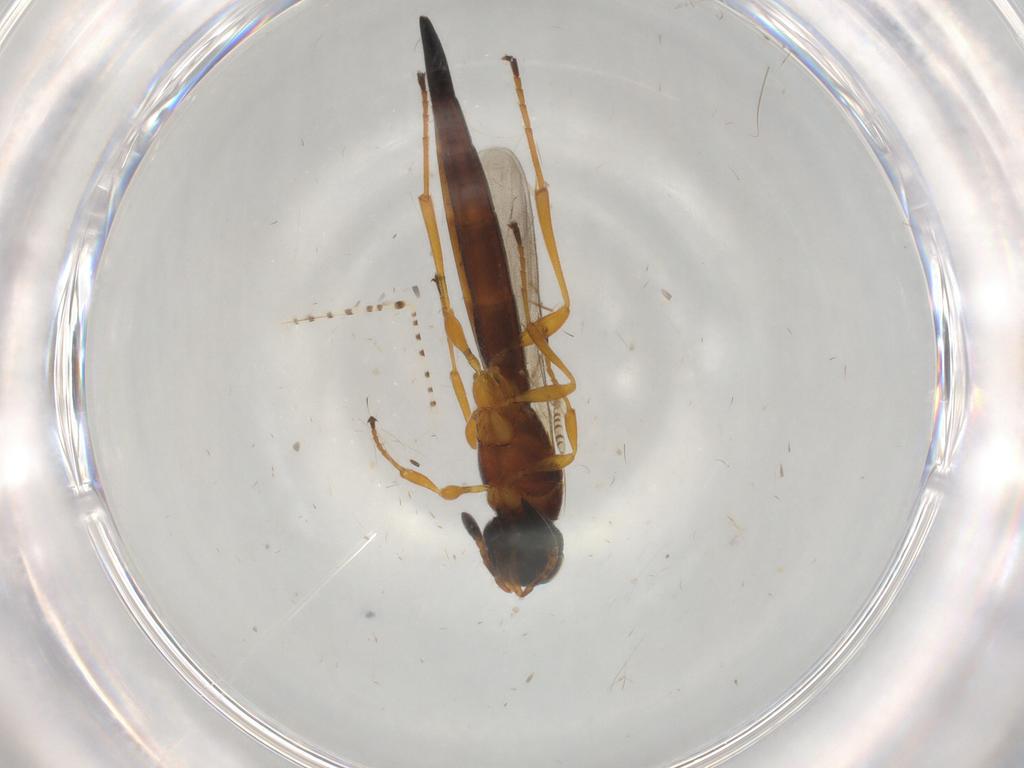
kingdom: Animalia
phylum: Arthropoda
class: Insecta
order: Hymenoptera
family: Scelionidae
